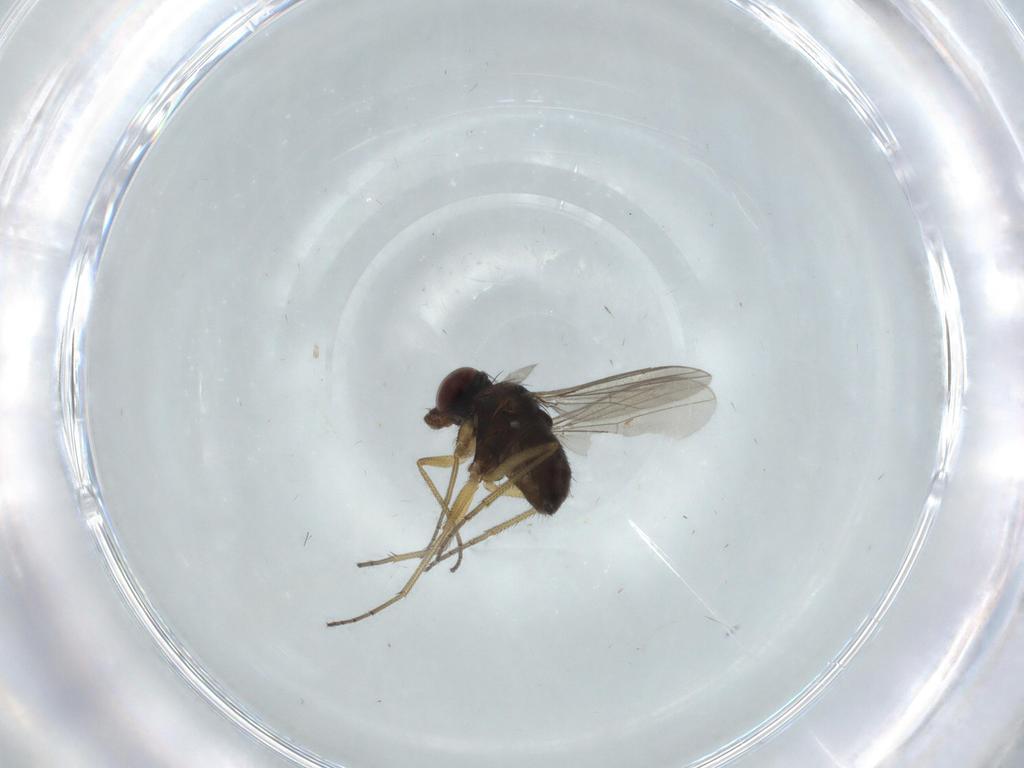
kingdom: Animalia
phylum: Arthropoda
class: Insecta
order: Diptera
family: Dolichopodidae
